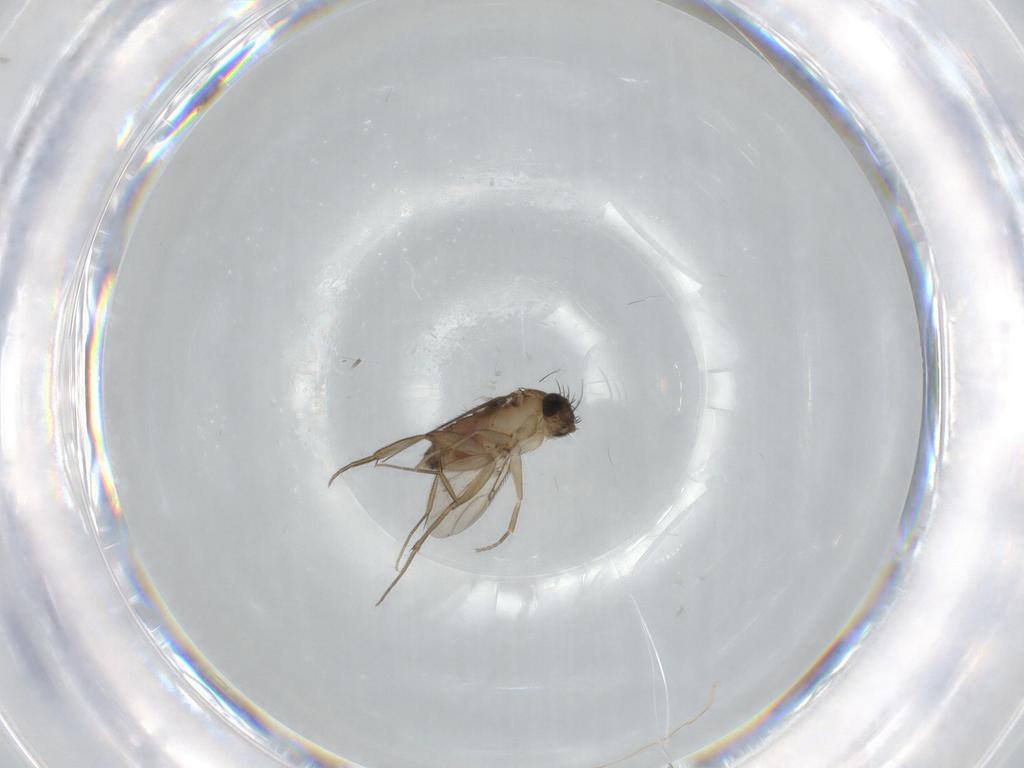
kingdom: Animalia
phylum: Arthropoda
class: Insecta
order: Diptera
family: Phoridae
